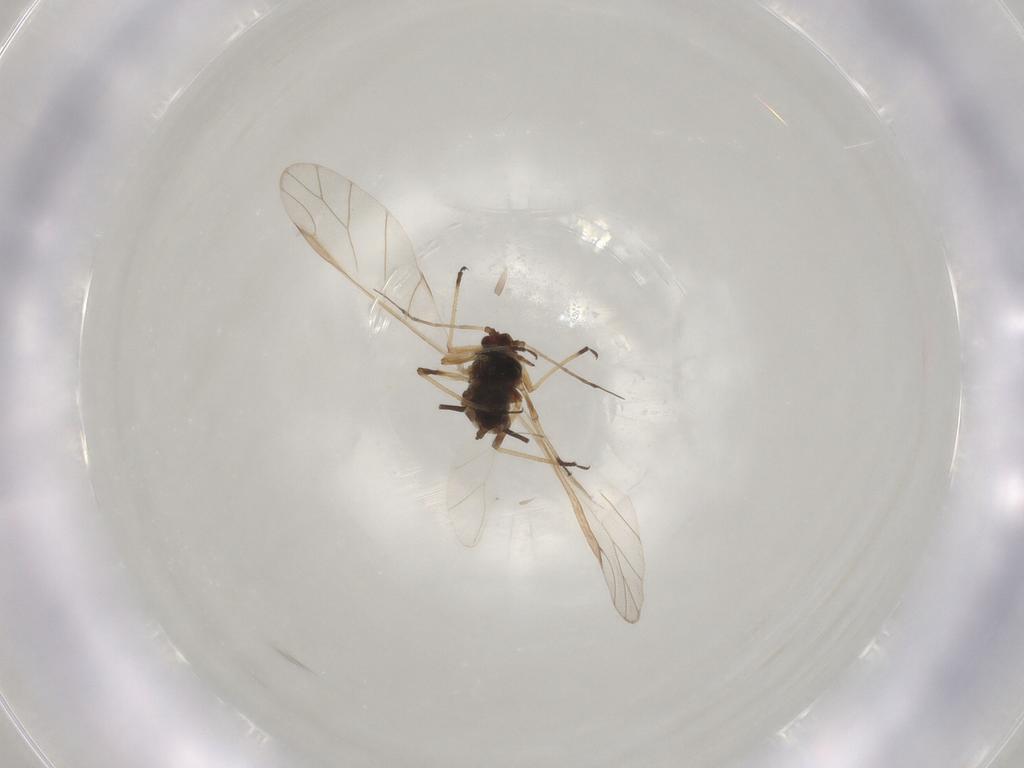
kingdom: Animalia
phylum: Arthropoda
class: Insecta
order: Hemiptera
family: Aphididae
